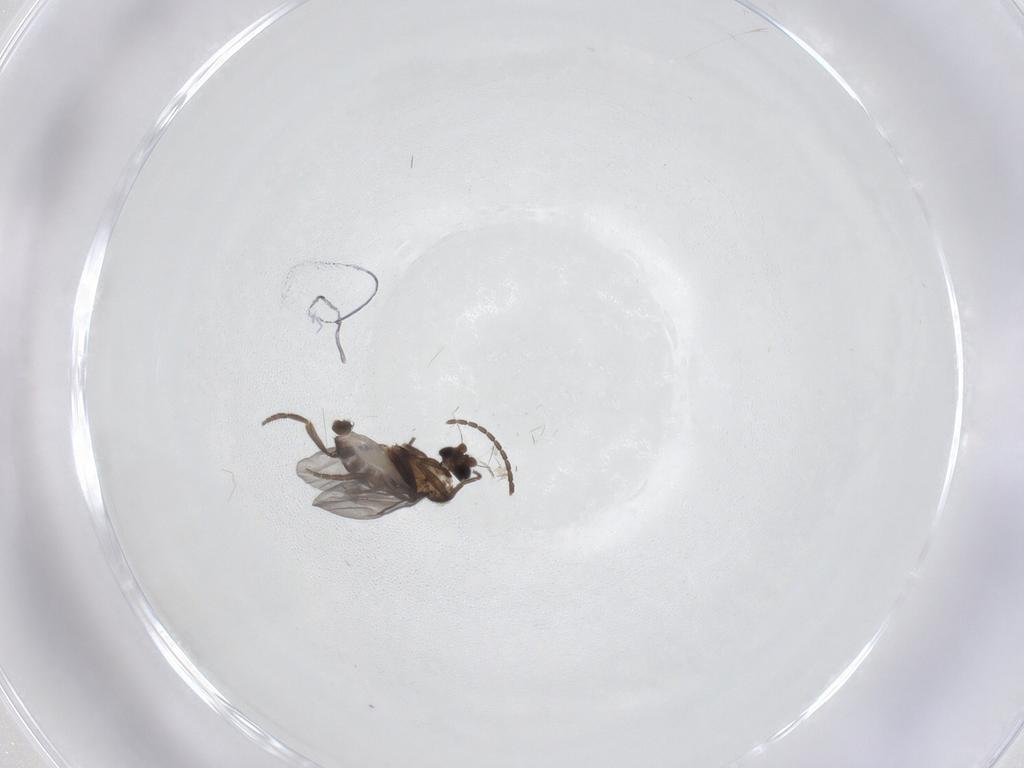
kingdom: Animalia
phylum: Arthropoda
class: Insecta
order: Diptera
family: Cecidomyiidae
